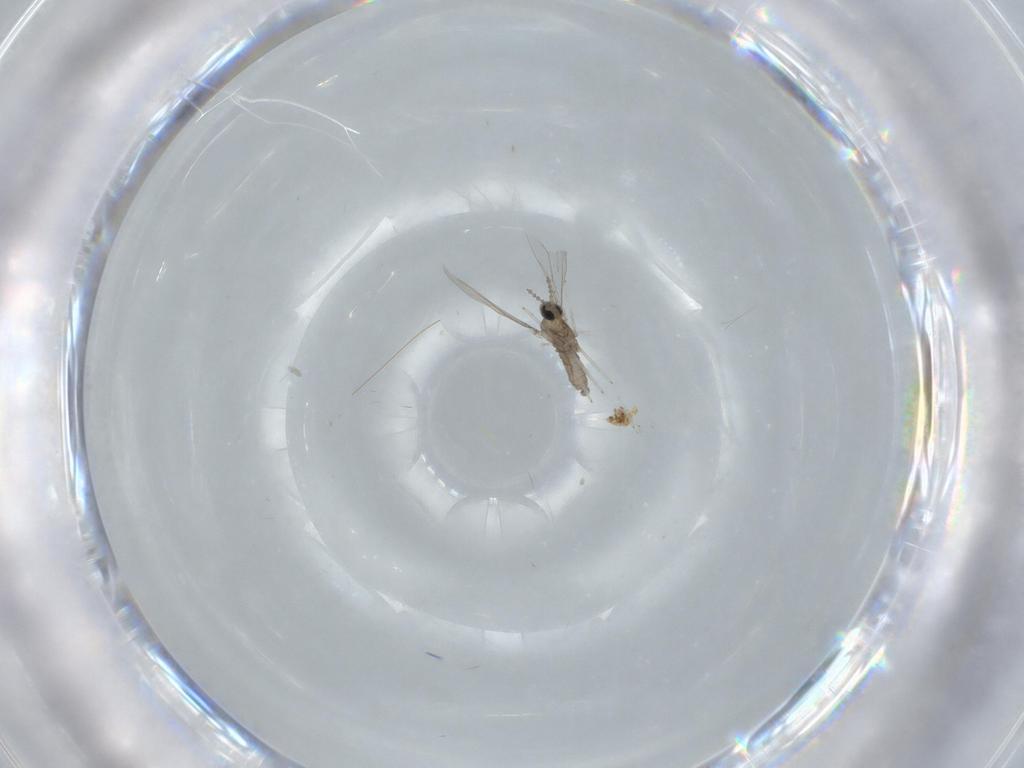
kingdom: Animalia
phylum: Arthropoda
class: Insecta
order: Diptera
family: Cecidomyiidae
